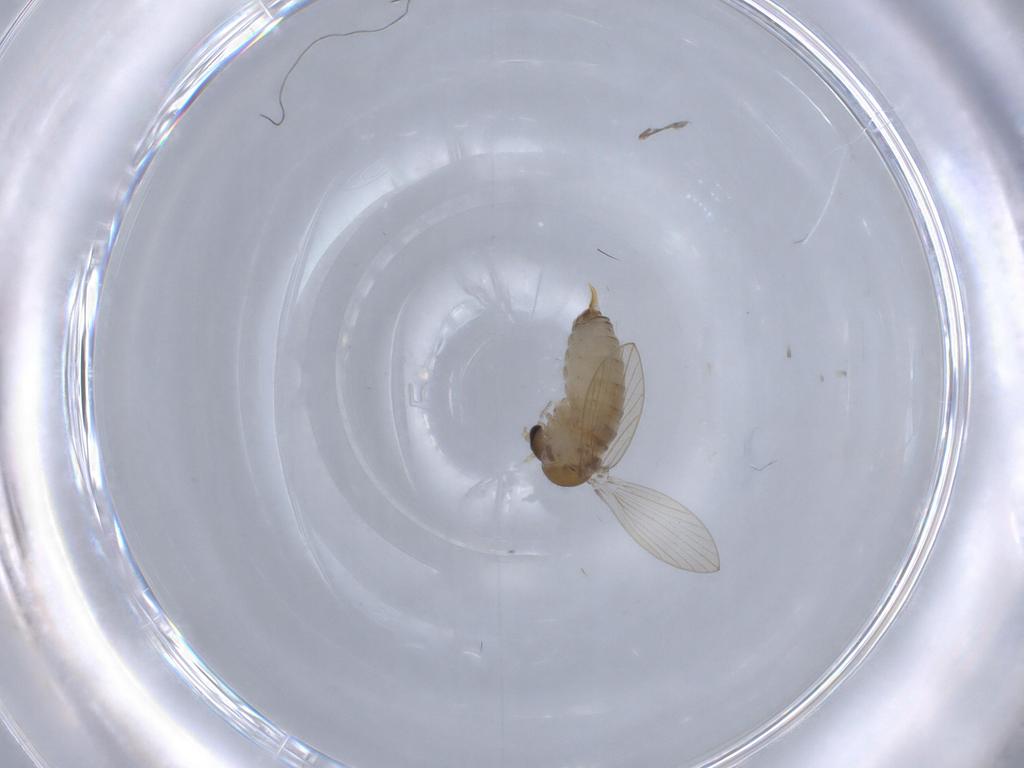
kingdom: Animalia
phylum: Arthropoda
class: Insecta
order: Diptera
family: Psychodidae
